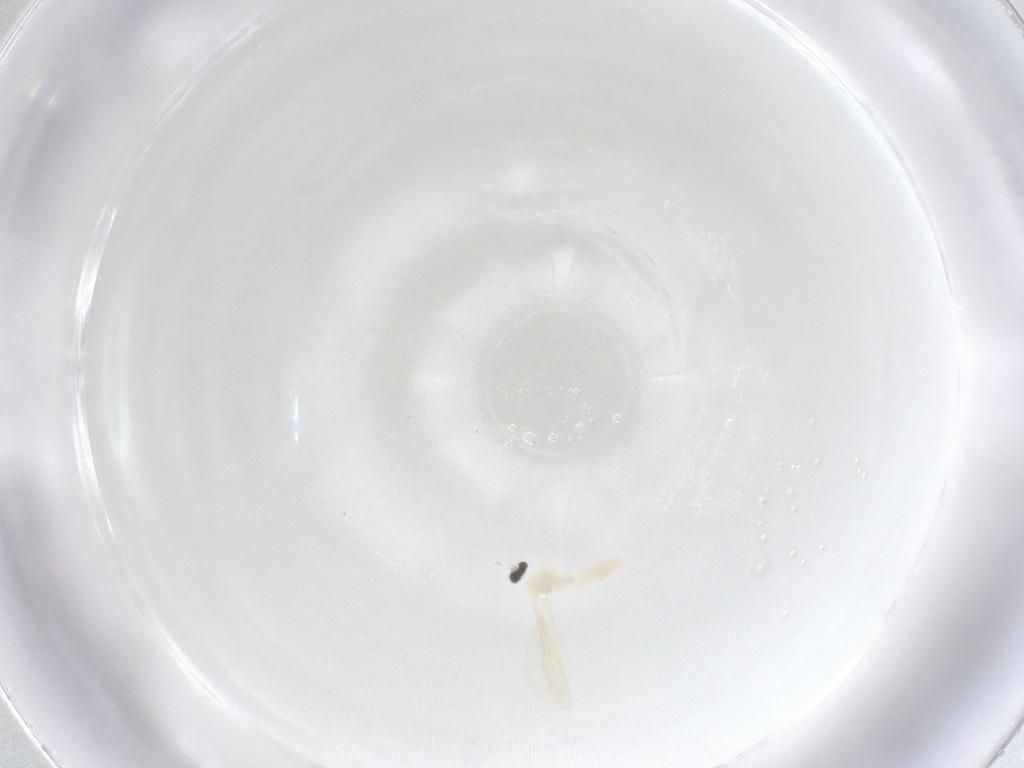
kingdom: Animalia
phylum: Arthropoda
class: Insecta
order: Diptera
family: Cecidomyiidae
